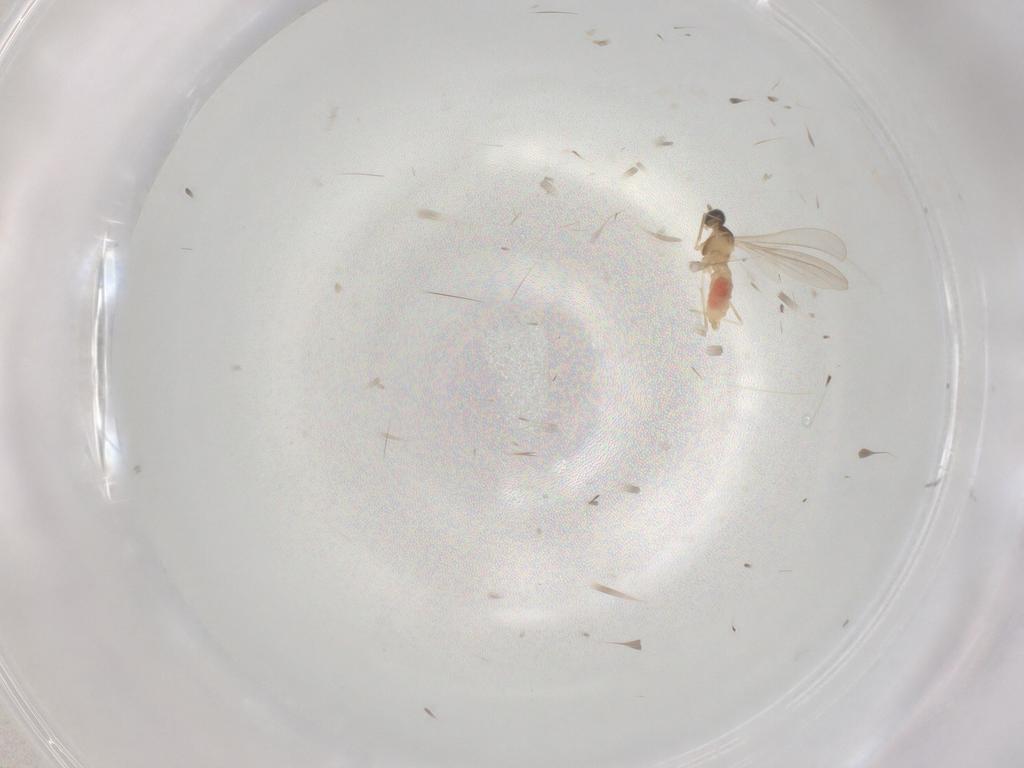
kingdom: Animalia
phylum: Arthropoda
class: Insecta
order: Diptera
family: Cecidomyiidae
